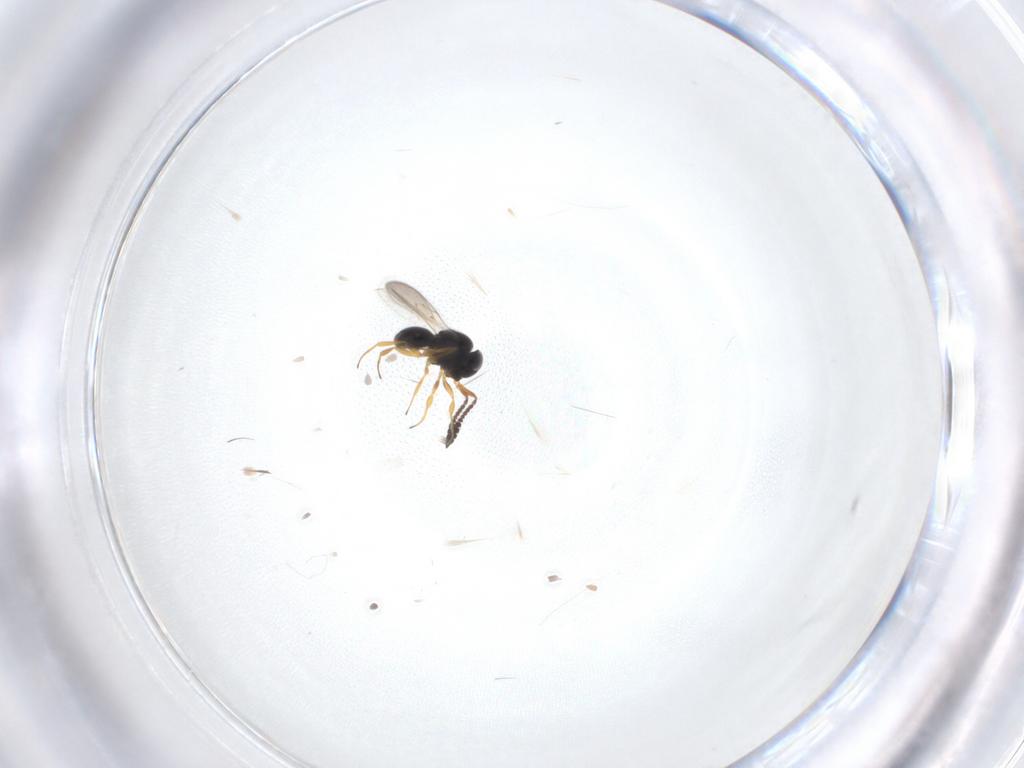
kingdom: Animalia
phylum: Arthropoda
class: Insecta
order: Hymenoptera
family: Scelionidae
